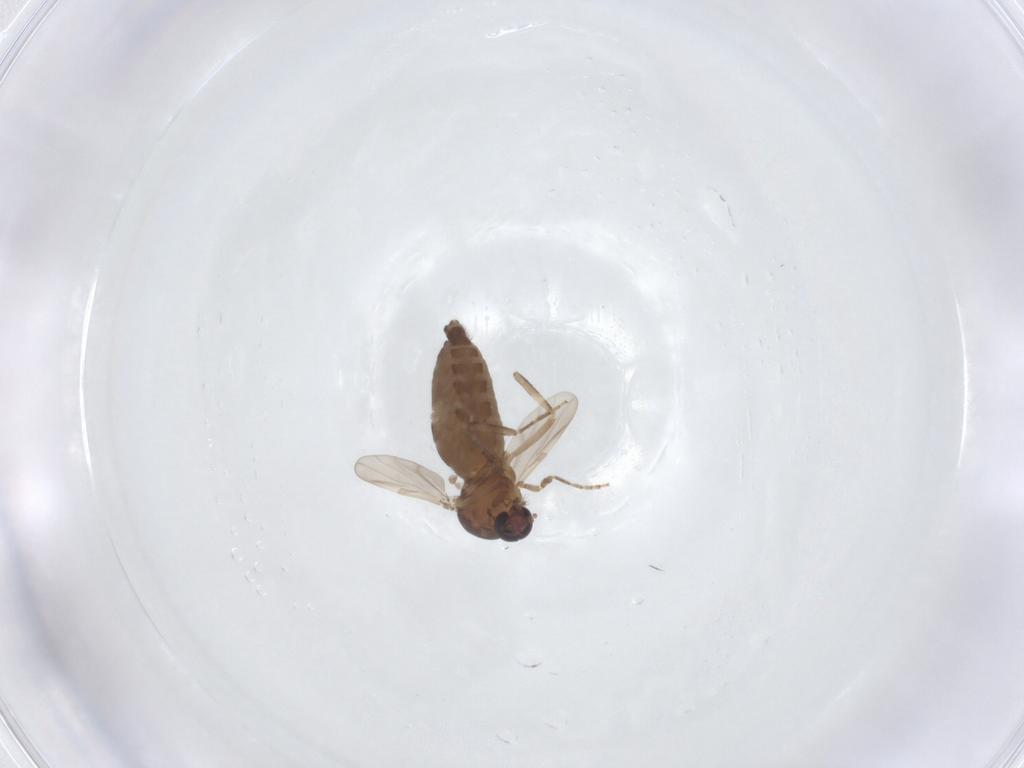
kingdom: Animalia
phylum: Arthropoda
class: Insecta
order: Diptera
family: Ceratopogonidae
